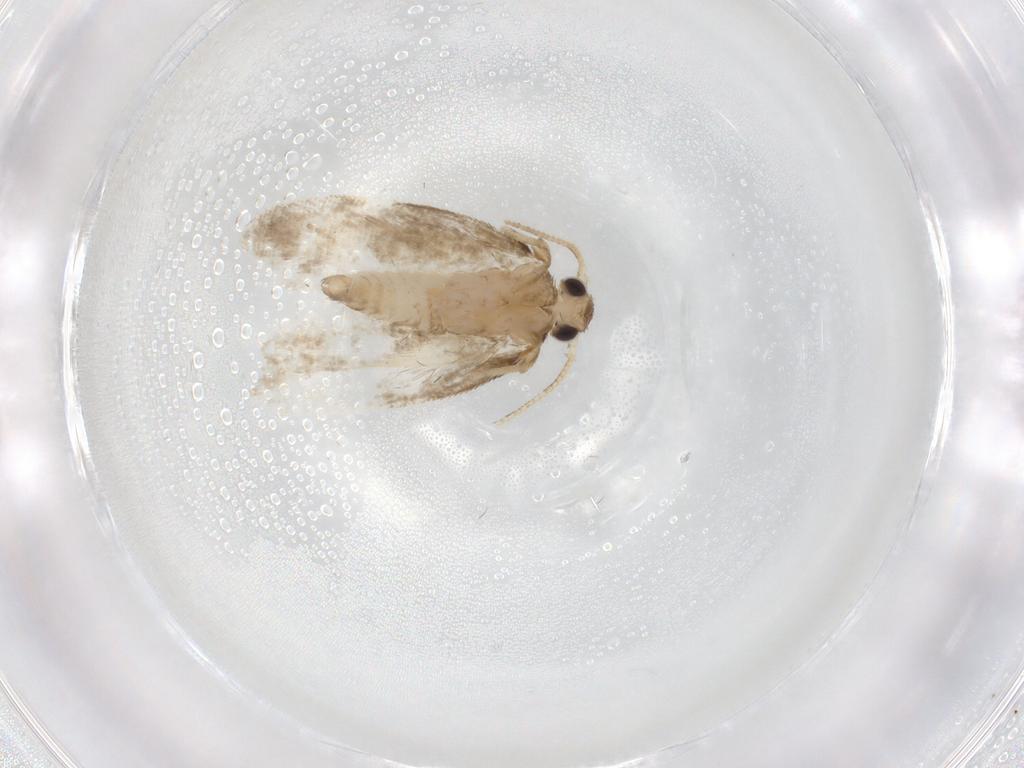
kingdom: Animalia
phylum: Arthropoda
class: Insecta
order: Lepidoptera
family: Psychidae
